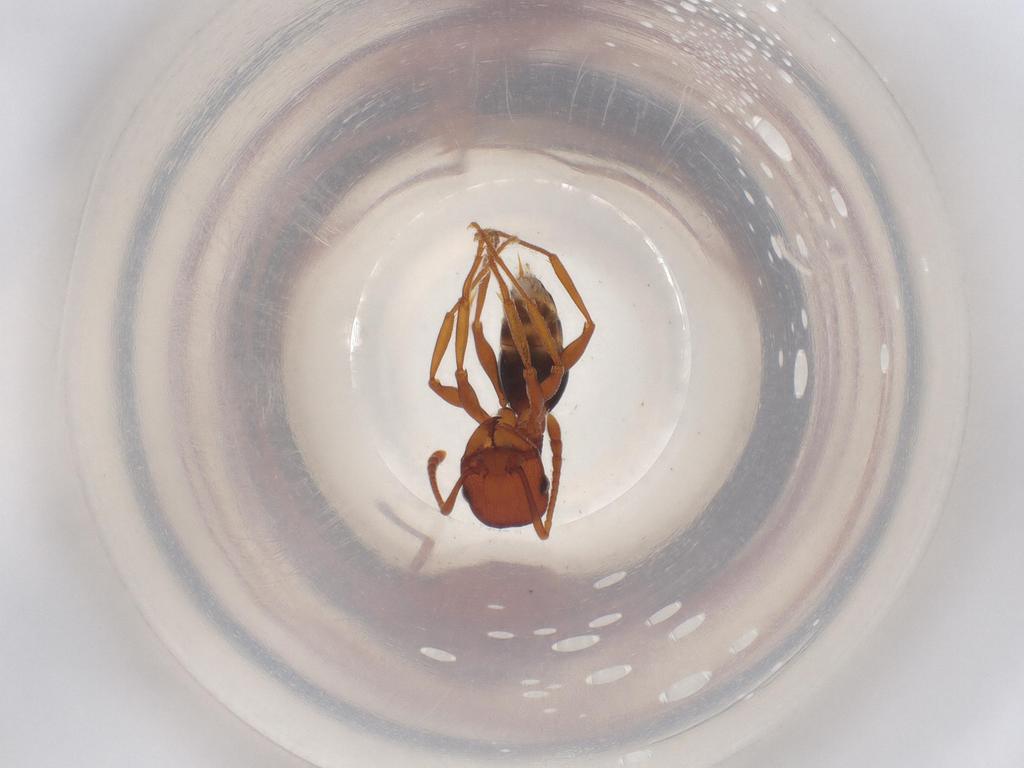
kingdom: Animalia
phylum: Arthropoda
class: Insecta
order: Hymenoptera
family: Formicidae
